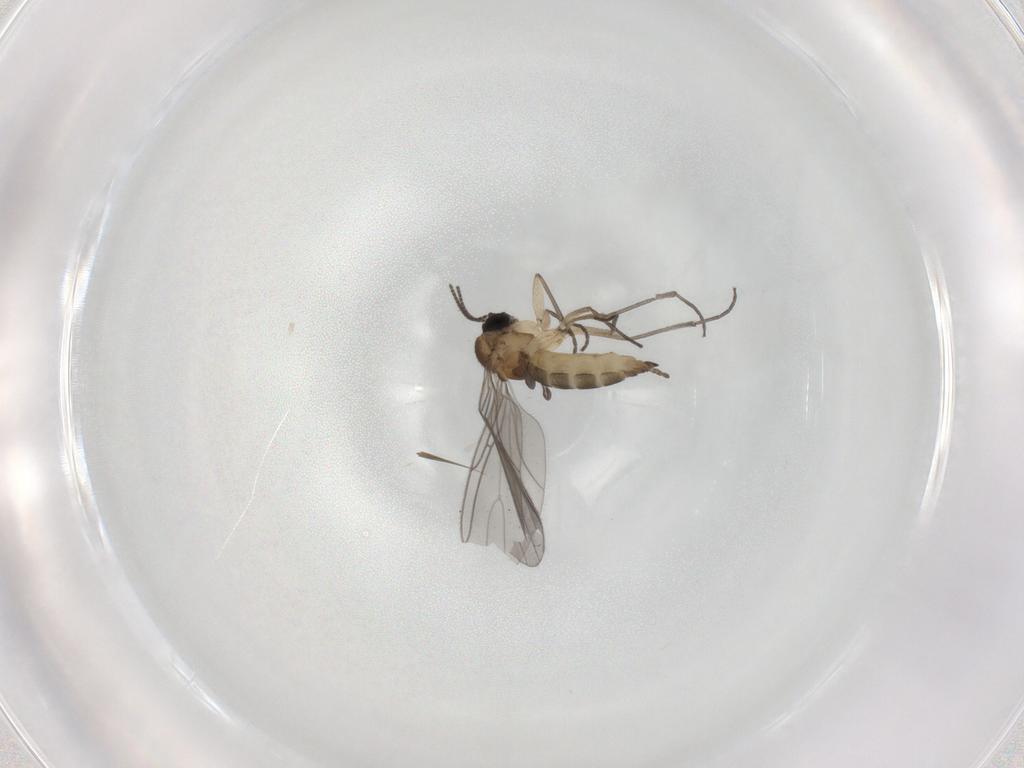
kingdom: Animalia
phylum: Arthropoda
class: Insecta
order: Diptera
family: Sciaridae
